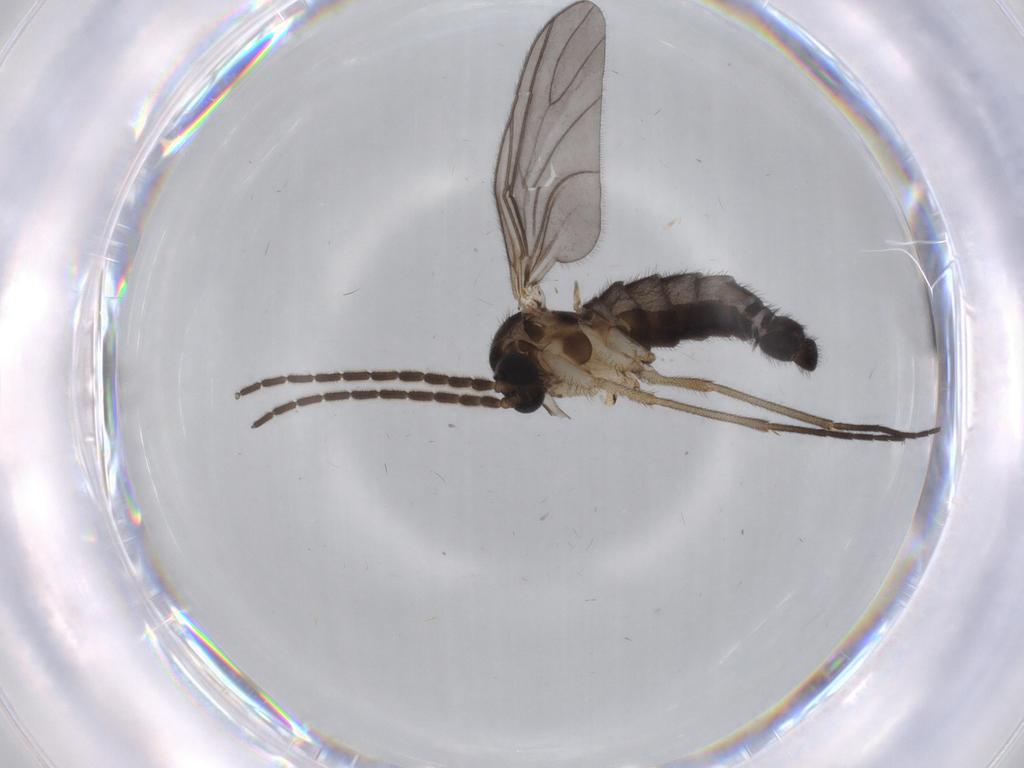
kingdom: Animalia
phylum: Arthropoda
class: Insecta
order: Diptera
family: Sciaridae
